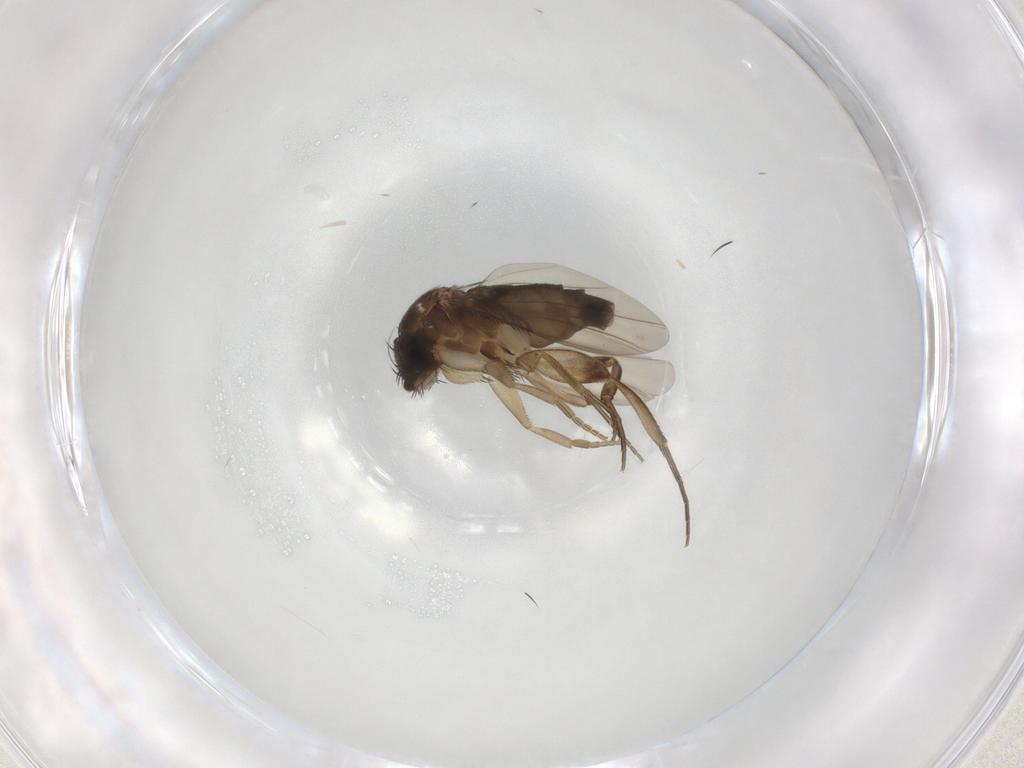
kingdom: Animalia
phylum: Arthropoda
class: Insecta
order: Diptera
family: Phoridae
